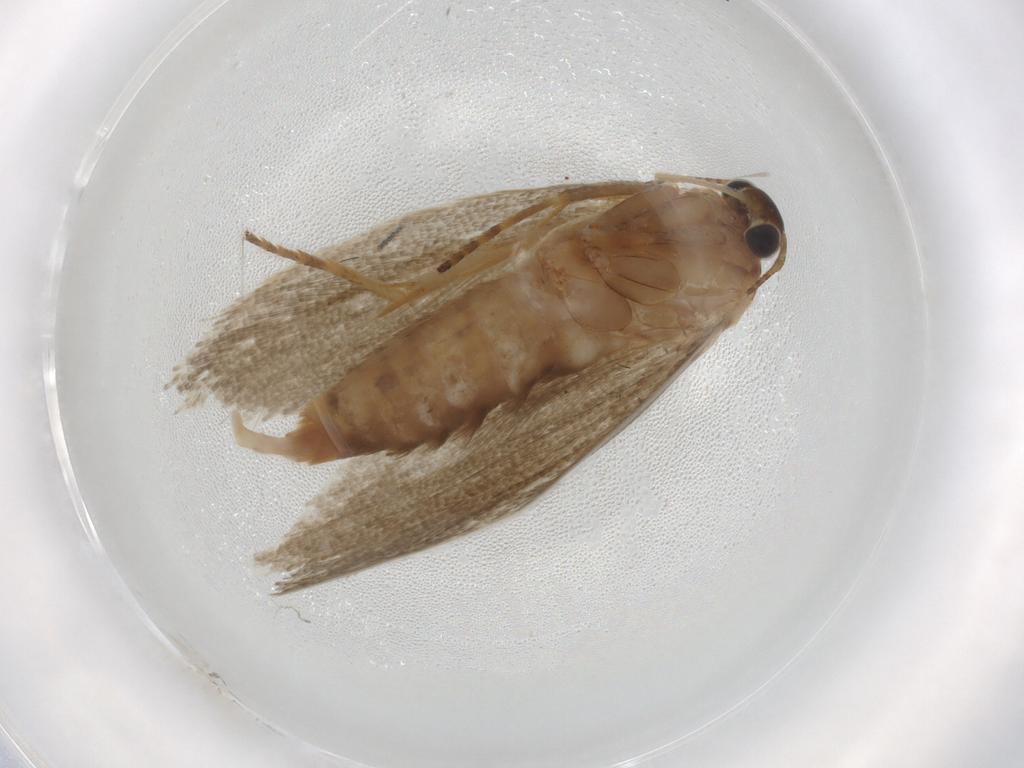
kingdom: Animalia
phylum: Arthropoda
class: Insecta
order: Lepidoptera
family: Oecophoridae
